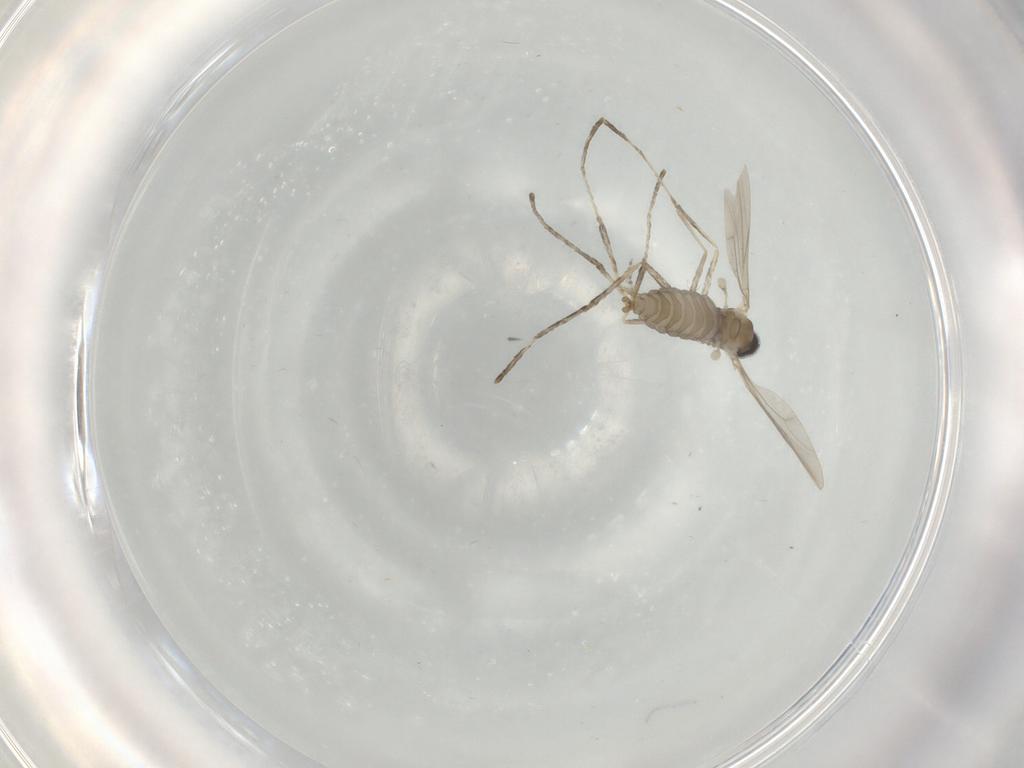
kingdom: Animalia
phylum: Arthropoda
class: Insecta
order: Diptera
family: Cecidomyiidae
